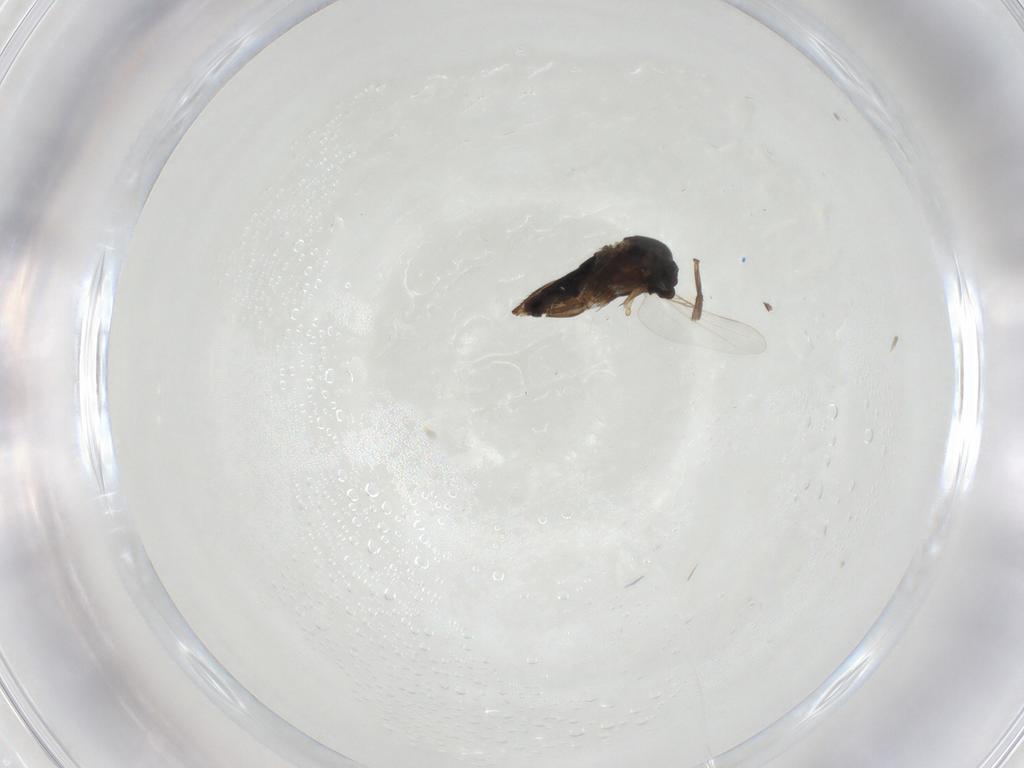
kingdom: Animalia
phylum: Arthropoda
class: Insecta
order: Diptera
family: Phoridae
